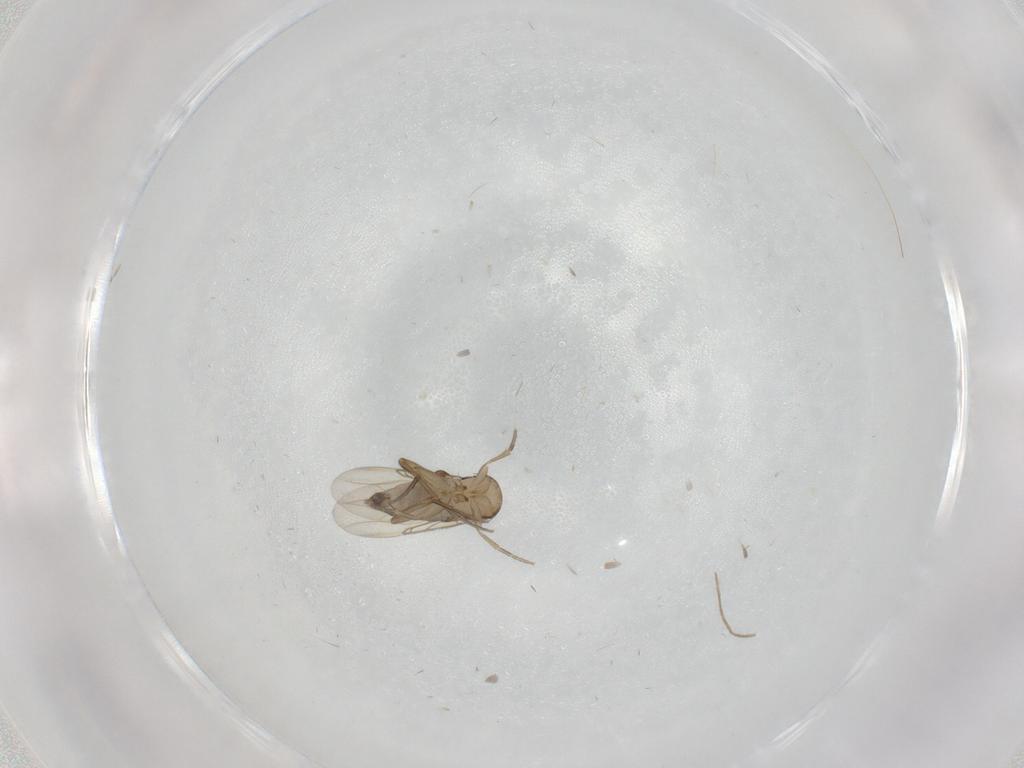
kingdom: Animalia
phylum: Arthropoda
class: Insecta
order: Diptera
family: Phoridae
